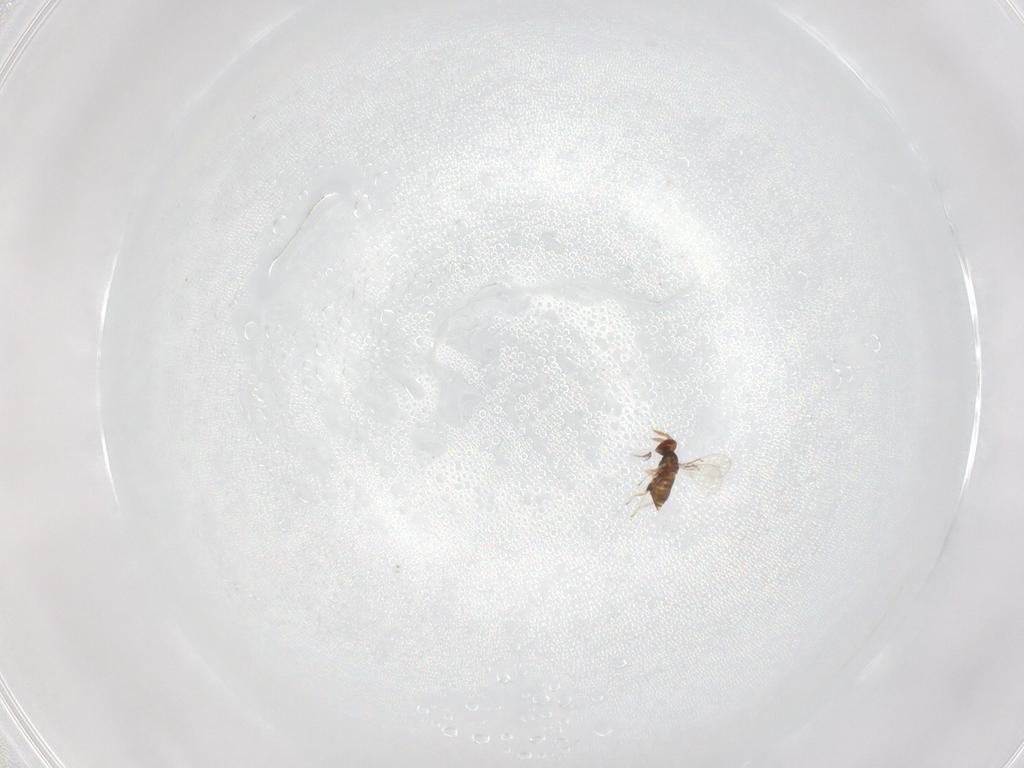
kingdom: Animalia
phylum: Arthropoda
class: Insecta
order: Hymenoptera
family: Trichogrammatidae
